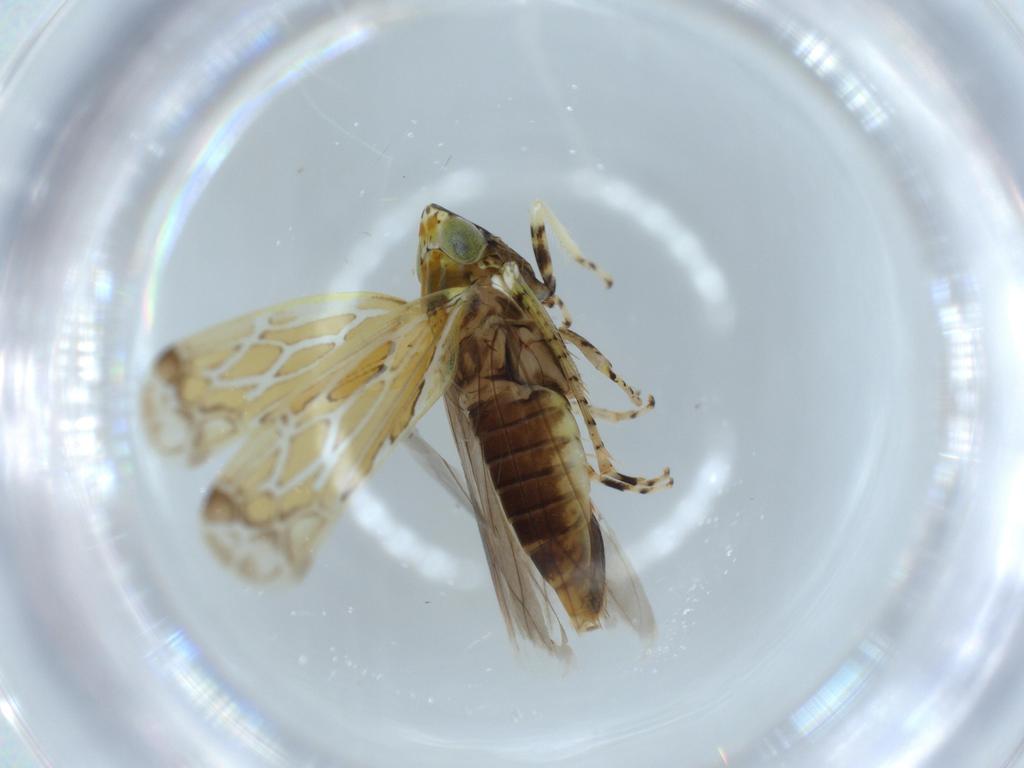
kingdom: Animalia
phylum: Arthropoda
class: Insecta
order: Hemiptera
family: Cicadellidae
